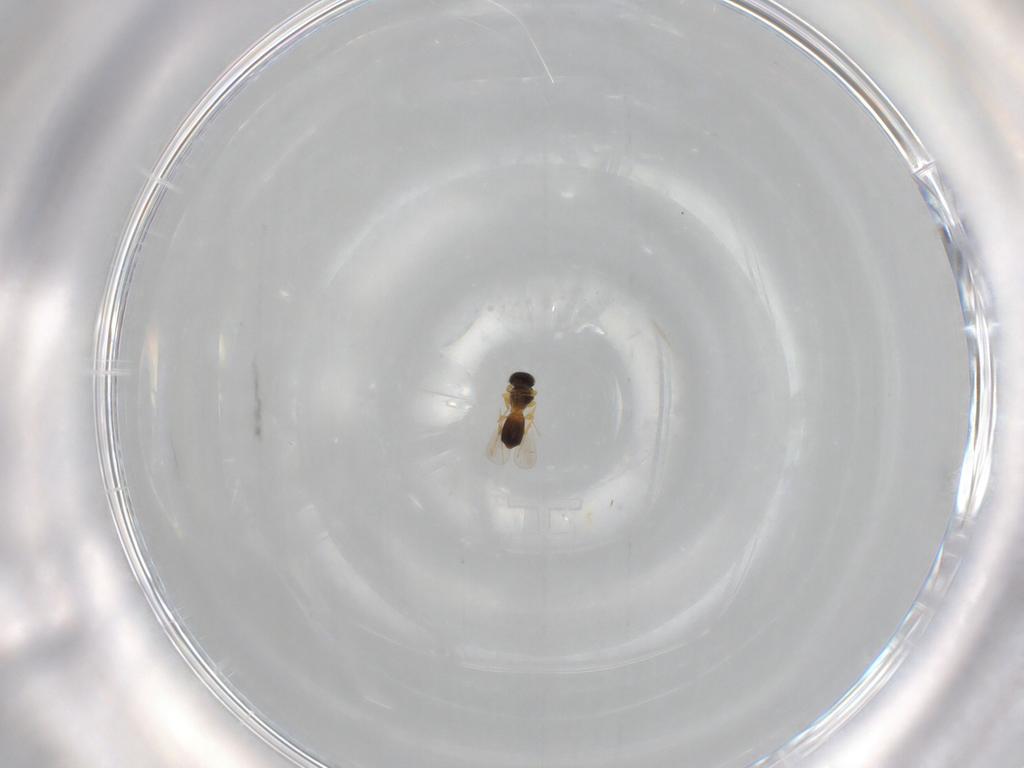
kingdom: Animalia
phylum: Arthropoda
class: Insecta
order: Hymenoptera
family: Platygastridae
